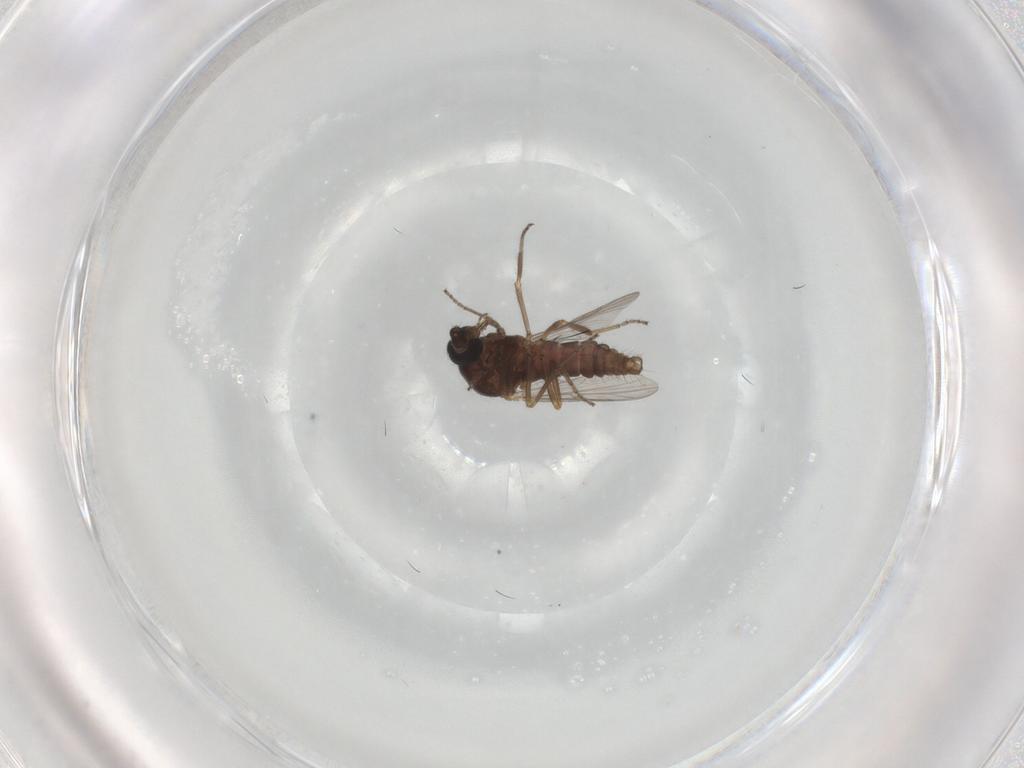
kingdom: Animalia
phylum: Arthropoda
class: Insecta
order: Diptera
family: Ceratopogonidae
